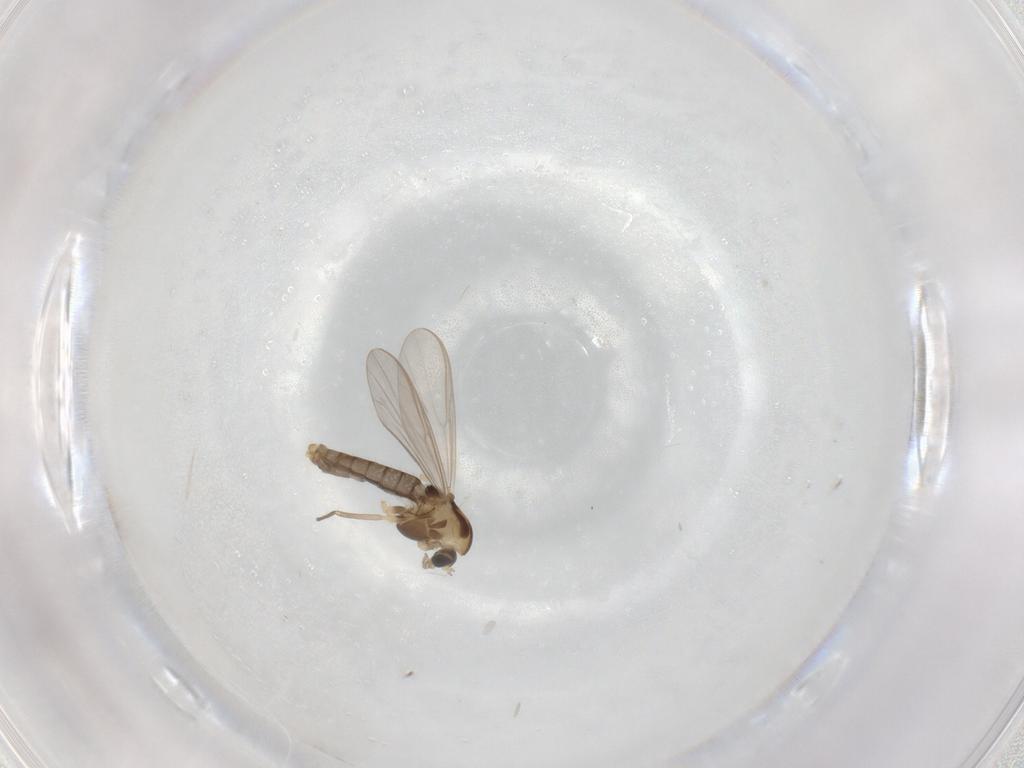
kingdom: Animalia
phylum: Arthropoda
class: Insecta
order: Diptera
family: Chironomidae
